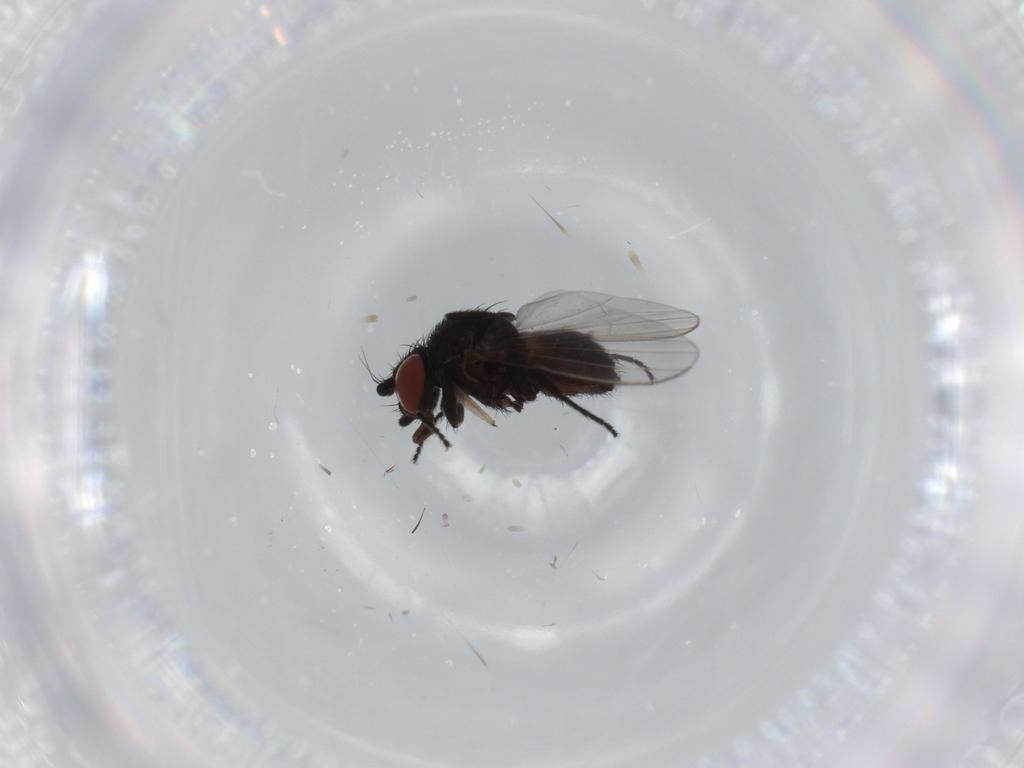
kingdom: Animalia
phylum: Arthropoda
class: Insecta
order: Diptera
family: Milichiidae
